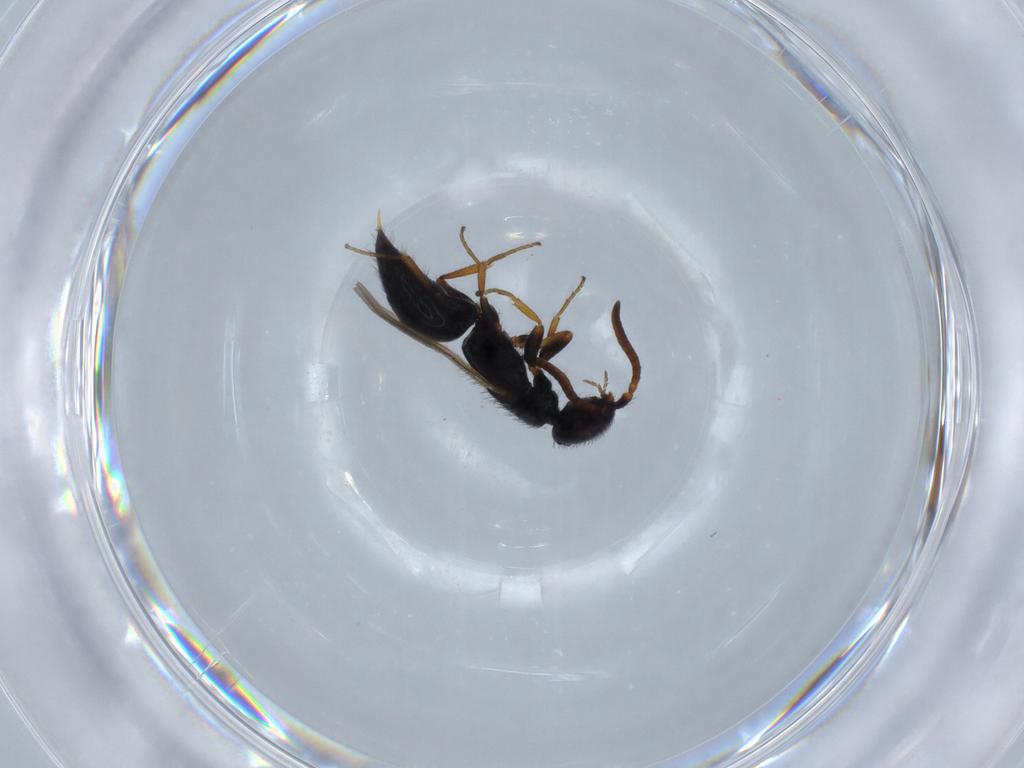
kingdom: Animalia
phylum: Arthropoda
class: Insecta
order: Hymenoptera
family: Bethylidae
